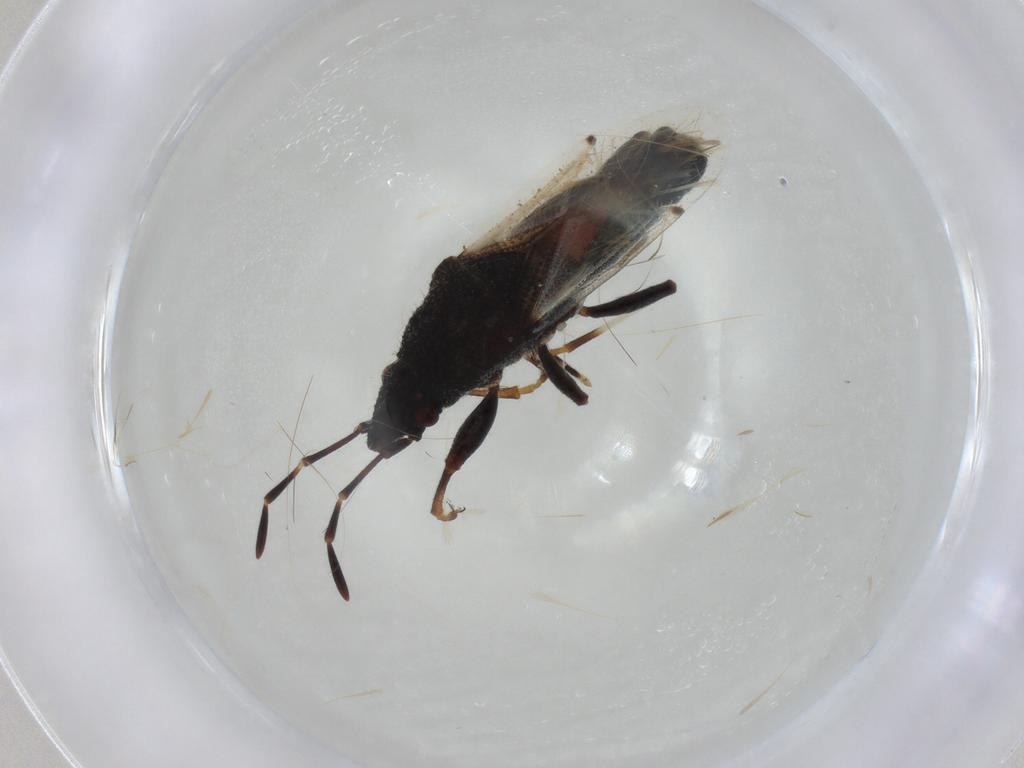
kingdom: Animalia
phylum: Arthropoda
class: Insecta
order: Hemiptera
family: Oxycarenidae
